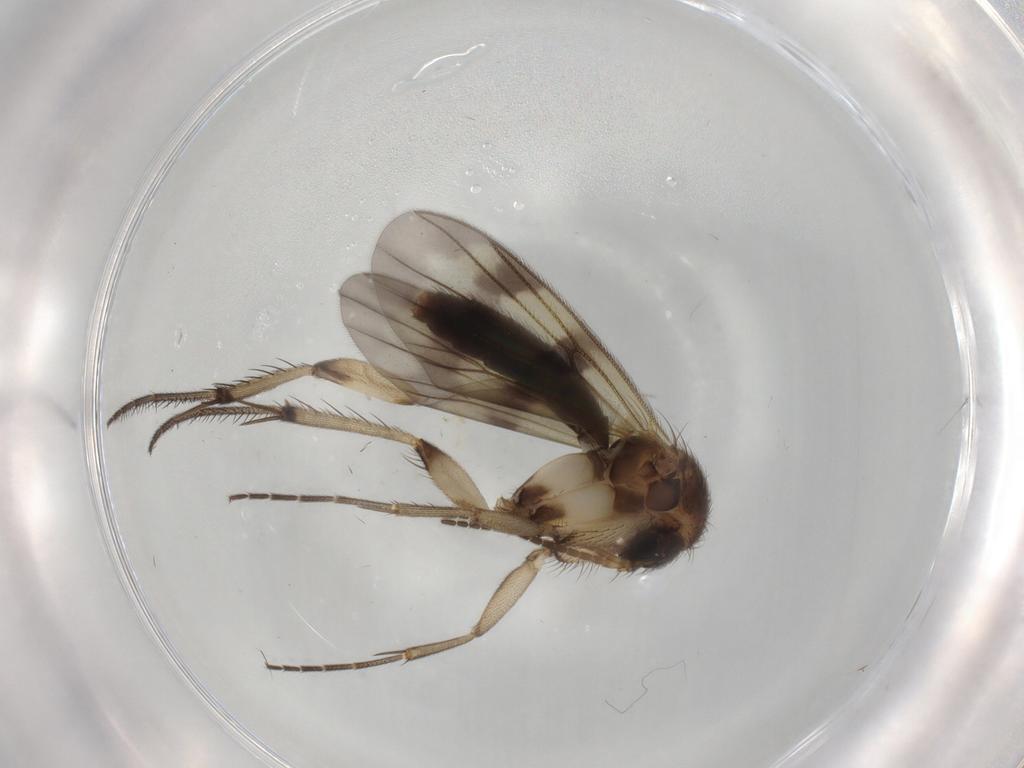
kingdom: Animalia
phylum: Arthropoda
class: Insecta
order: Diptera
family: Mycetophilidae
